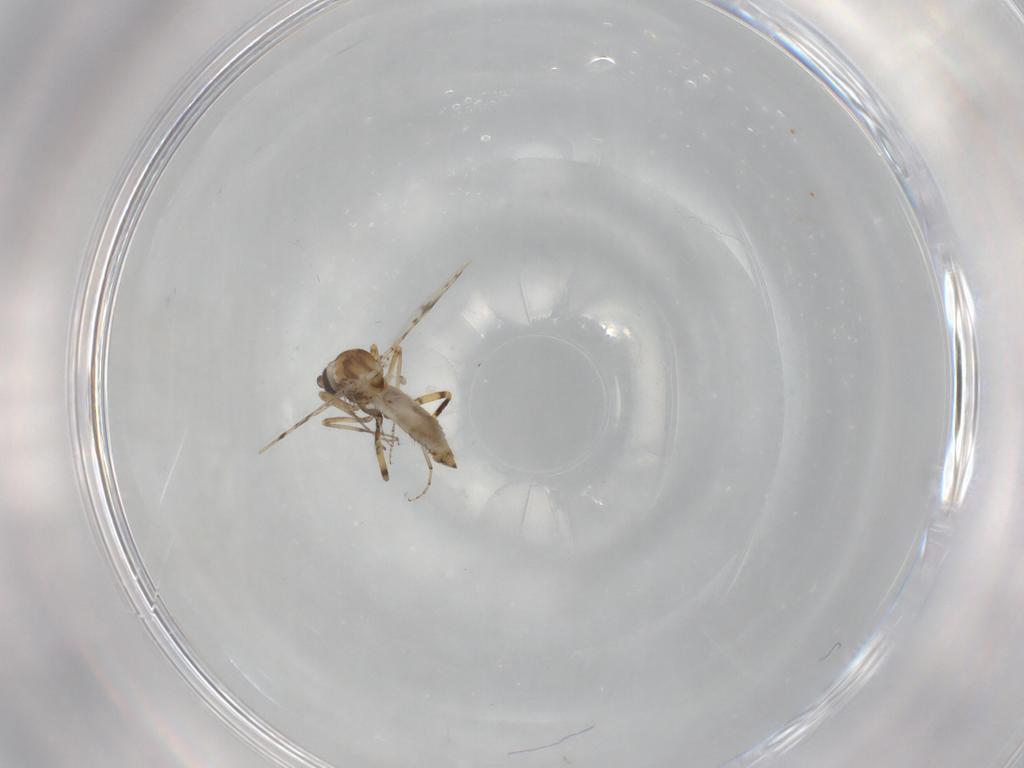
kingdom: Animalia
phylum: Arthropoda
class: Insecta
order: Diptera
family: Ceratopogonidae
